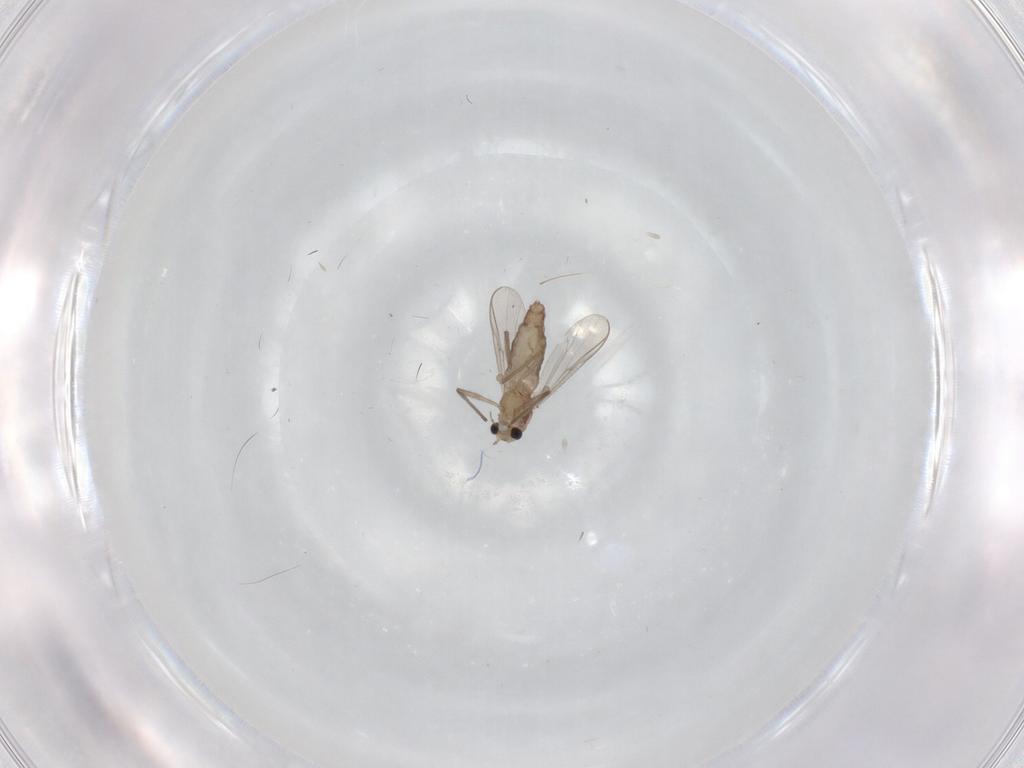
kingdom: Animalia
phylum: Arthropoda
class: Insecta
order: Diptera
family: Chironomidae
